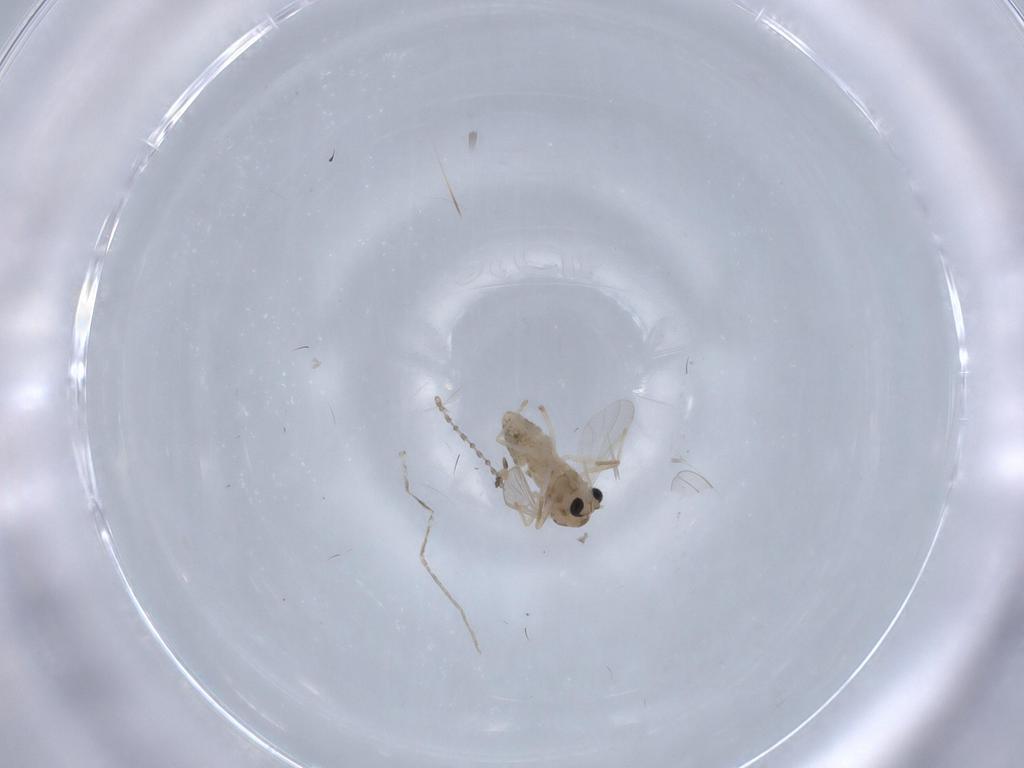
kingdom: Animalia
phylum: Arthropoda
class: Insecta
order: Diptera
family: Chironomidae
